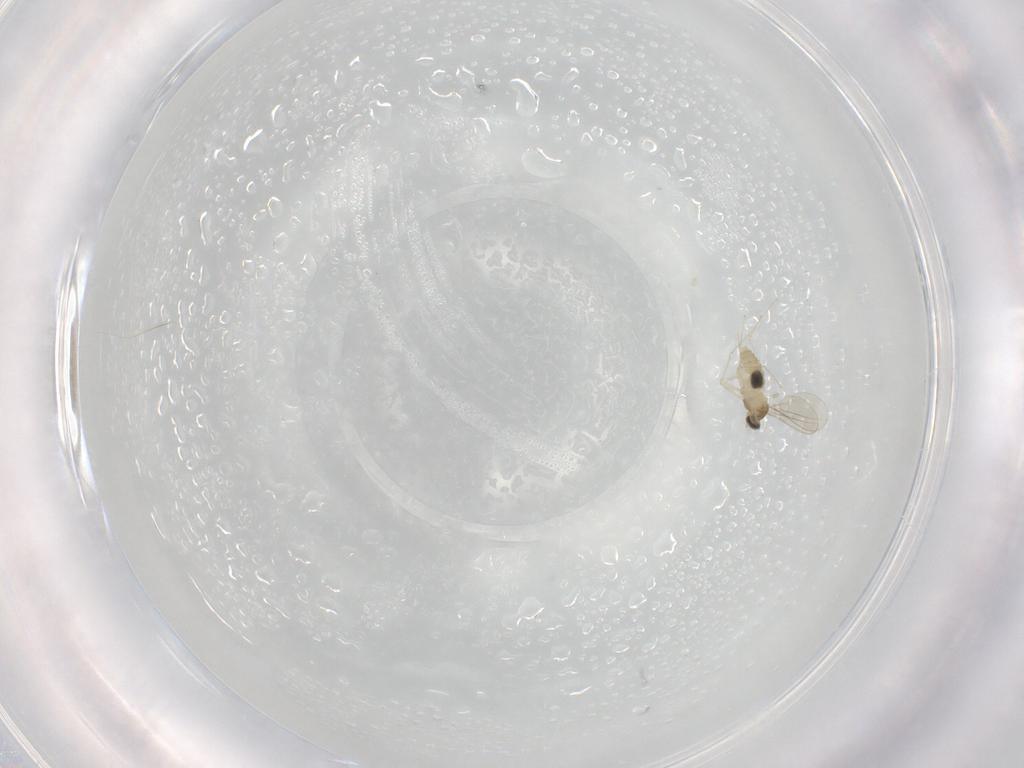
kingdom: Animalia
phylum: Arthropoda
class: Insecta
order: Diptera
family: Cecidomyiidae
